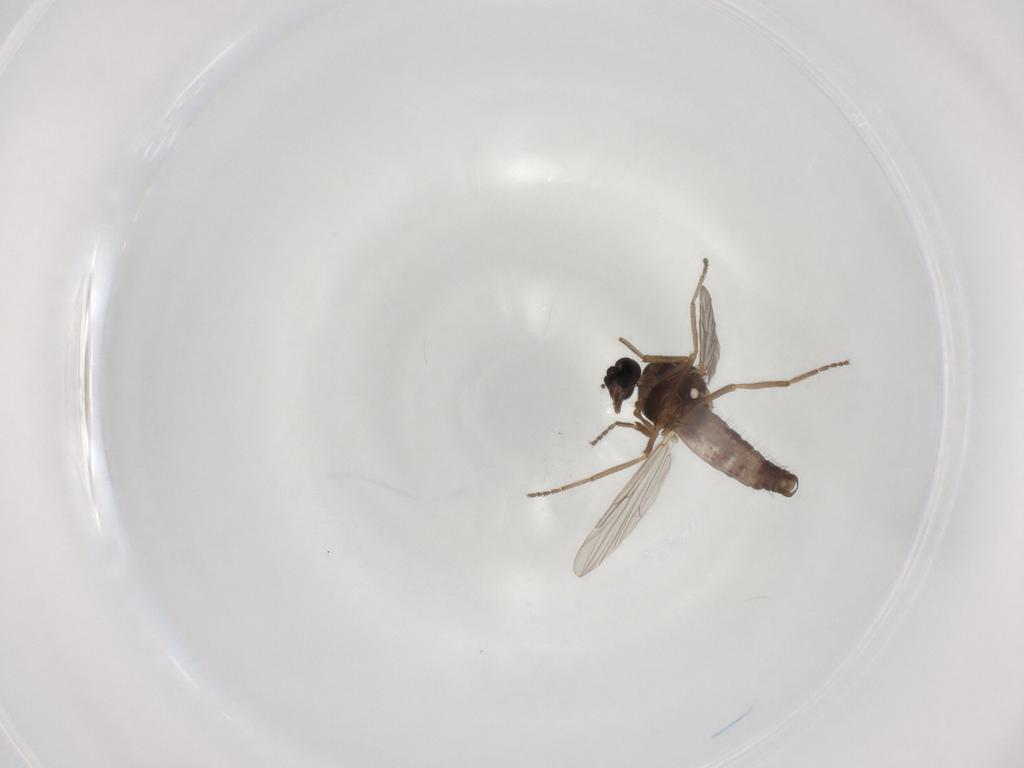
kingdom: Animalia
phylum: Arthropoda
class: Insecta
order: Diptera
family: Ceratopogonidae
